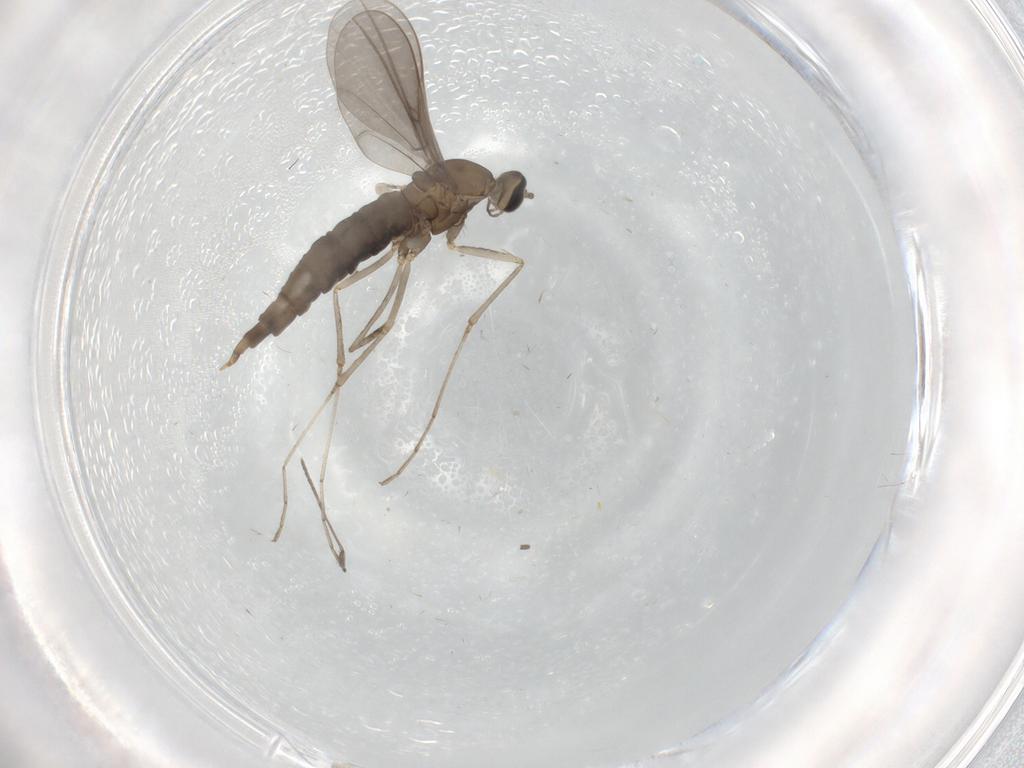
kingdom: Animalia
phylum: Arthropoda
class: Insecta
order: Diptera
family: Cecidomyiidae
